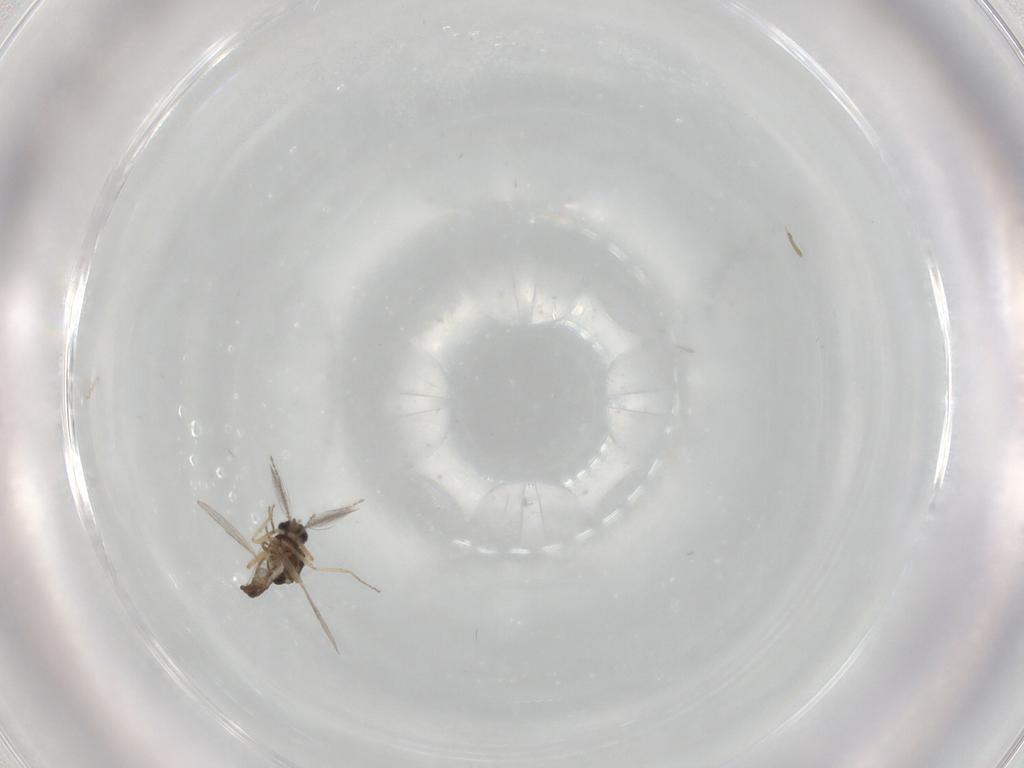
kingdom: Animalia
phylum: Arthropoda
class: Insecta
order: Diptera
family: Ceratopogonidae
